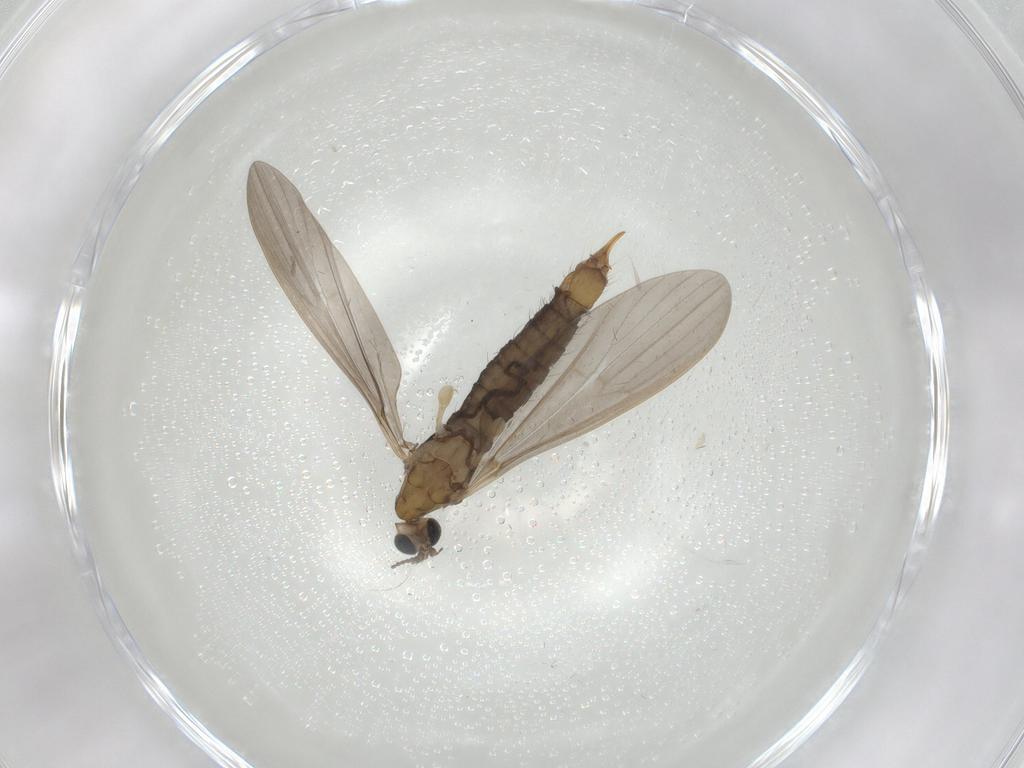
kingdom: Animalia
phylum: Arthropoda
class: Insecta
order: Diptera
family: Limoniidae
